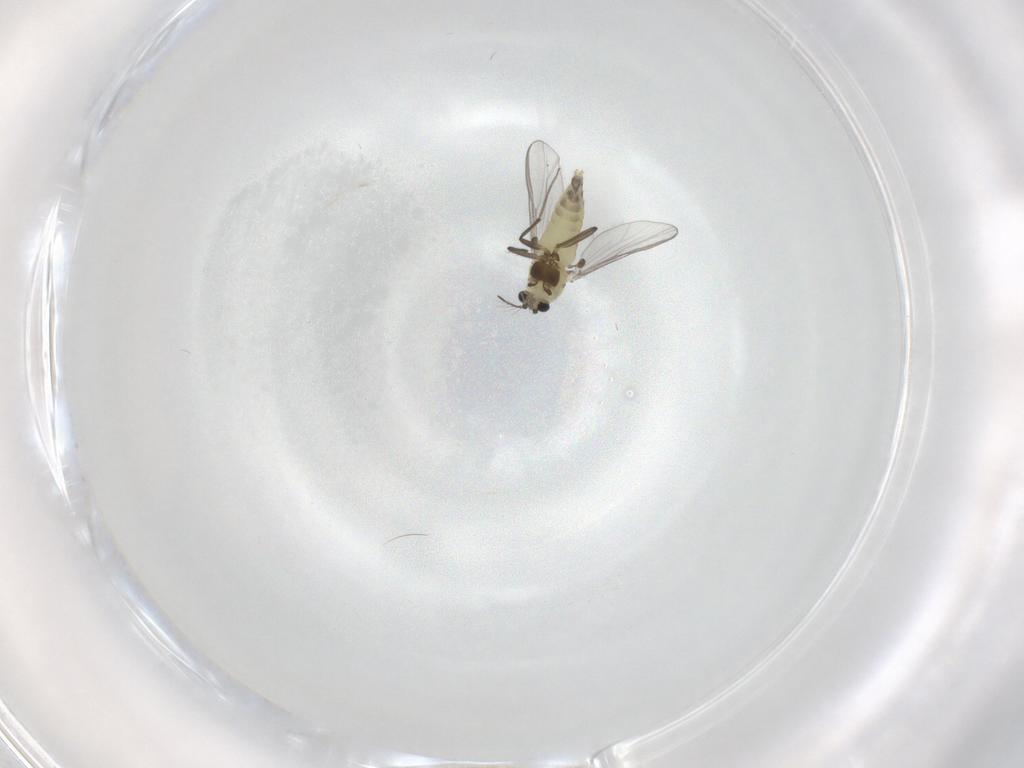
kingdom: Animalia
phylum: Arthropoda
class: Insecta
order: Diptera
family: Chironomidae
